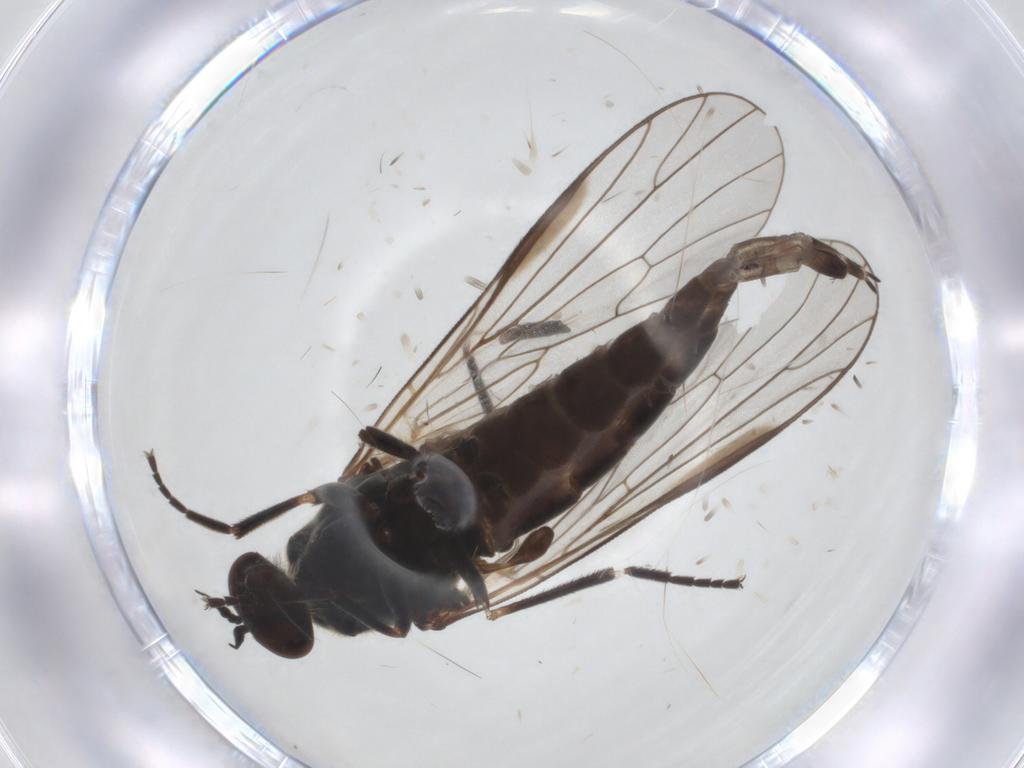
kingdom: Animalia
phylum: Arthropoda
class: Insecta
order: Diptera
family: Empididae
